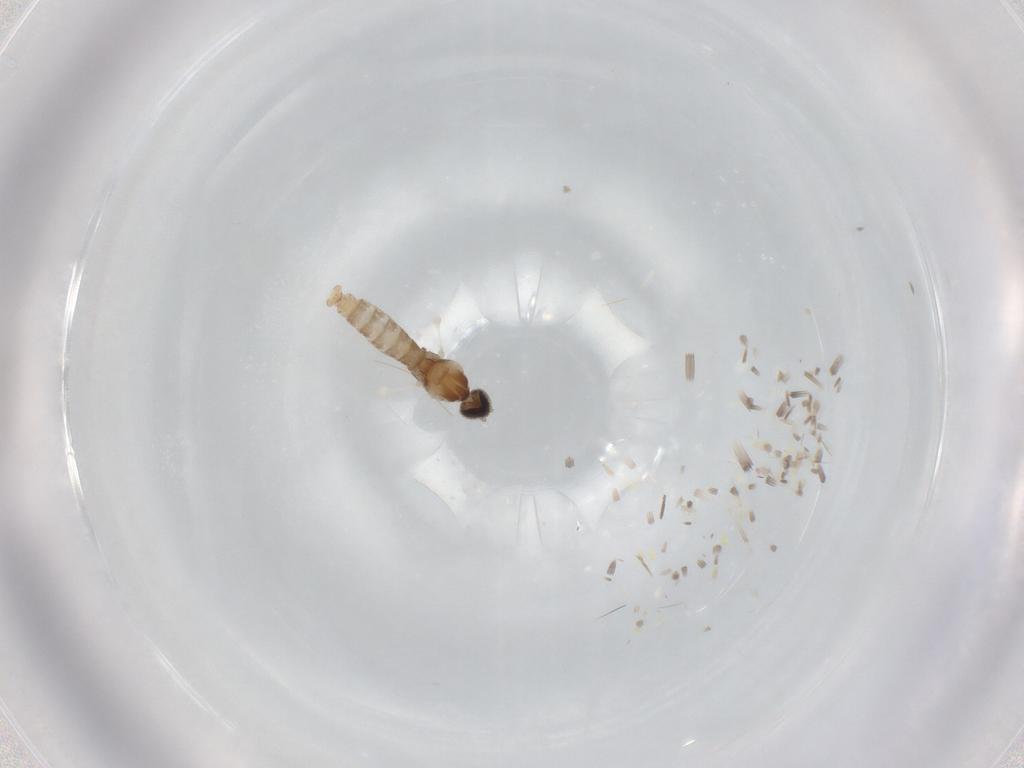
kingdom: Animalia
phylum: Arthropoda
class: Insecta
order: Diptera
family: Cecidomyiidae
